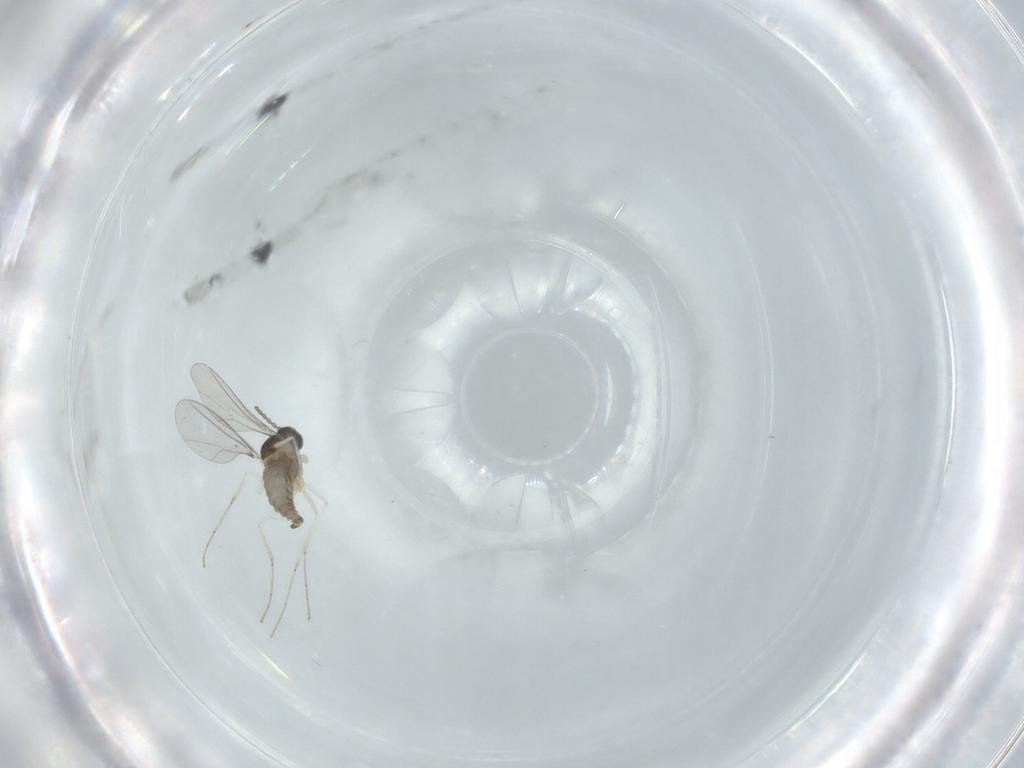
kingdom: Animalia
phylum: Arthropoda
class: Insecta
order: Diptera
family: Cecidomyiidae
